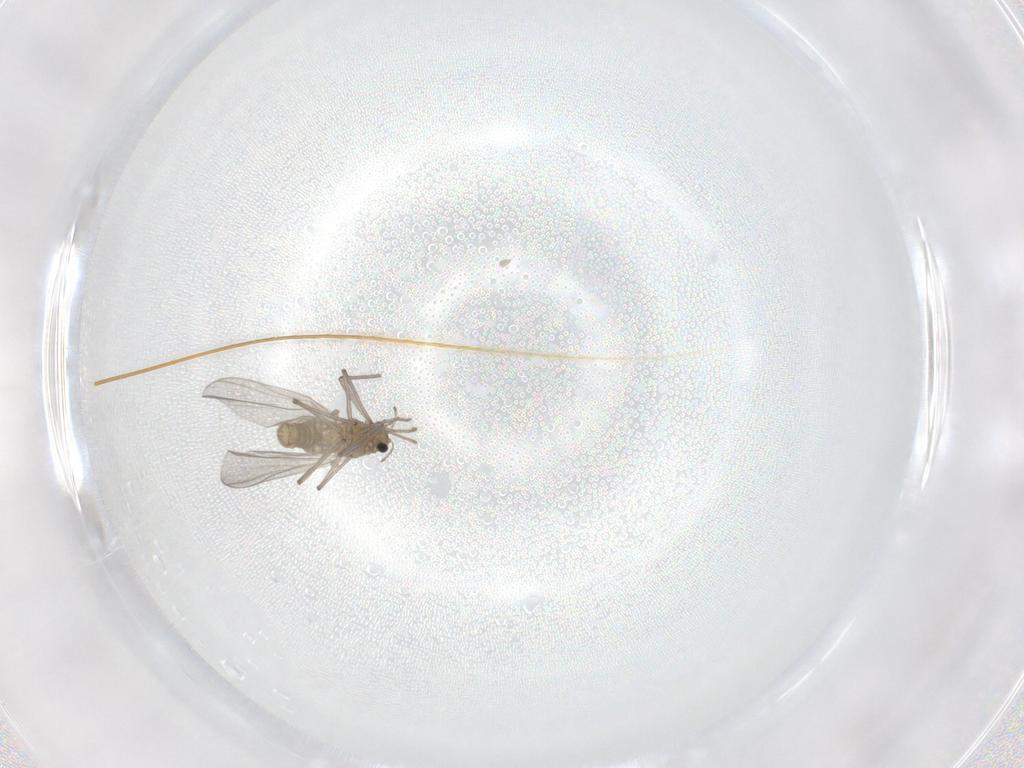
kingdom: Animalia
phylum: Arthropoda
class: Insecta
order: Diptera
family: Chironomidae
